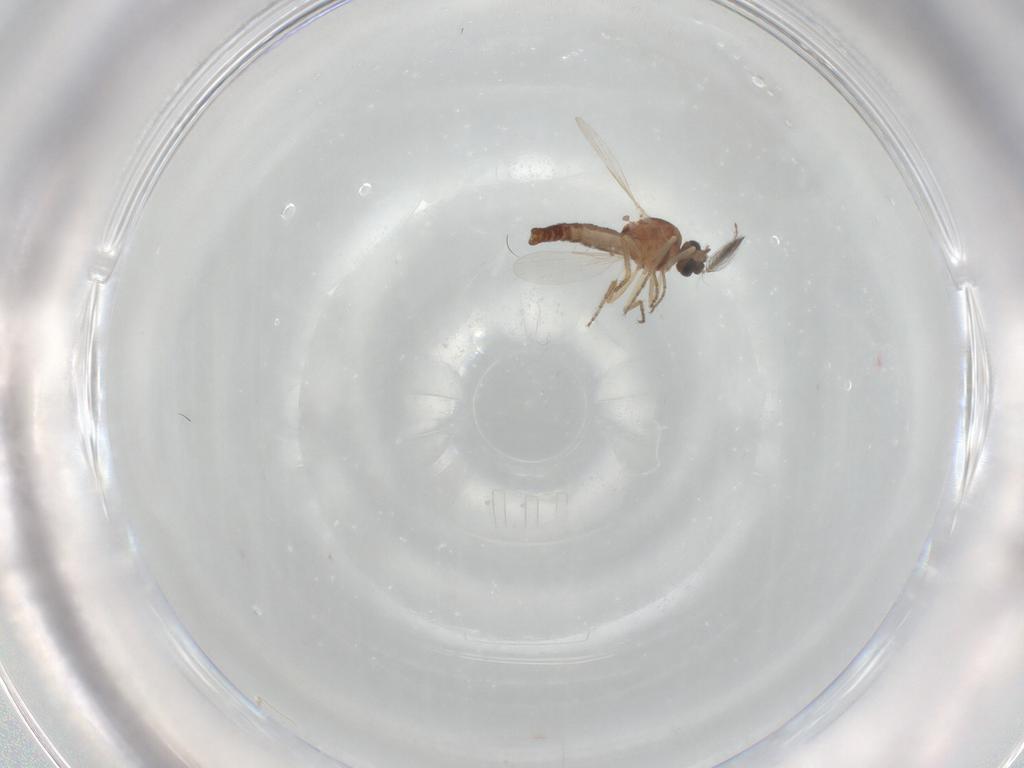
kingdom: Animalia
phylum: Arthropoda
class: Insecta
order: Diptera
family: Ceratopogonidae
